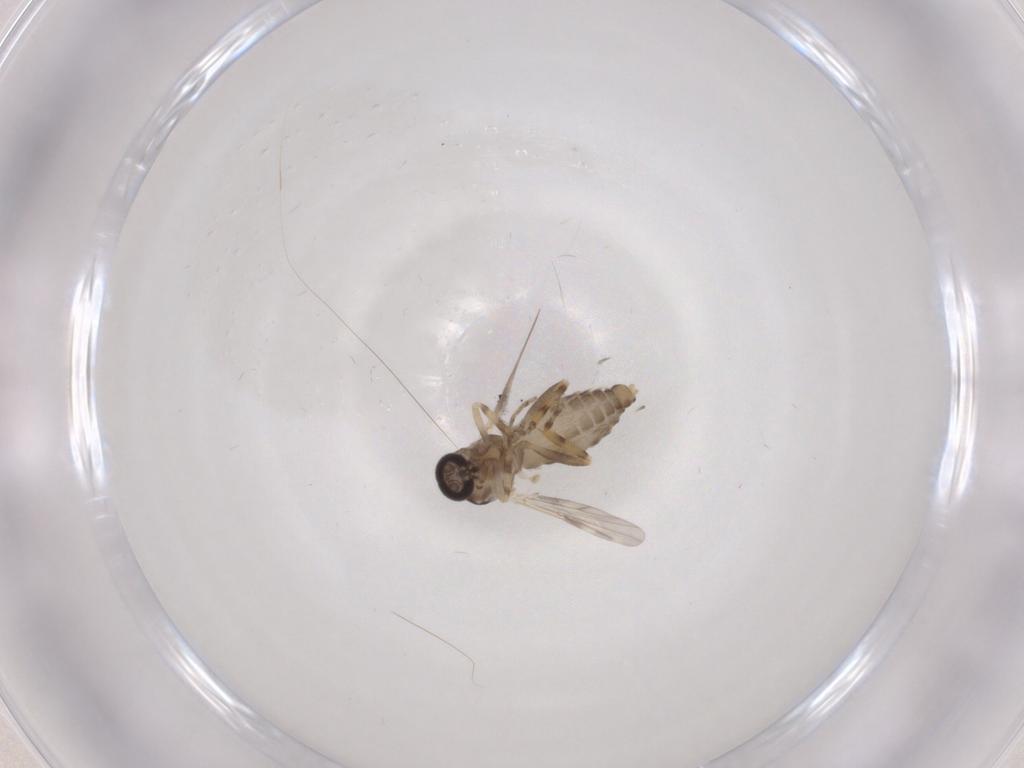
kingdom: Animalia
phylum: Arthropoda
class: Insecta
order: Diptera
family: Ceratopogonidae
